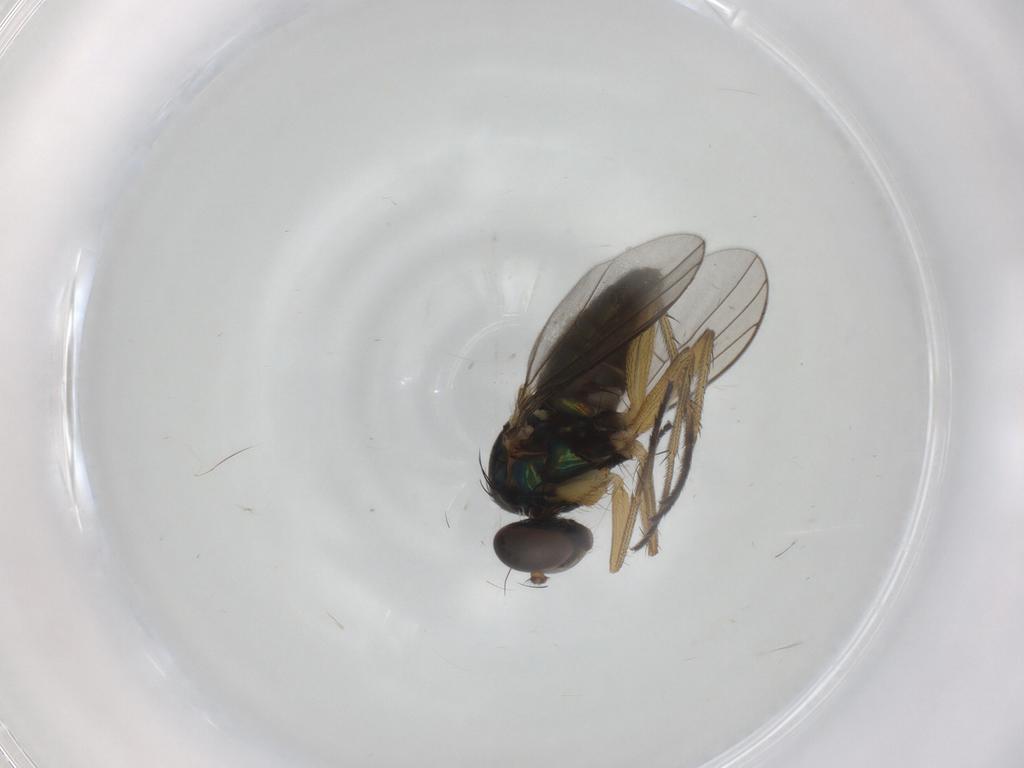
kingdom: Animalia
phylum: Arthropoda
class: Insecta
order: Diptera
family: Dolichopodidae
